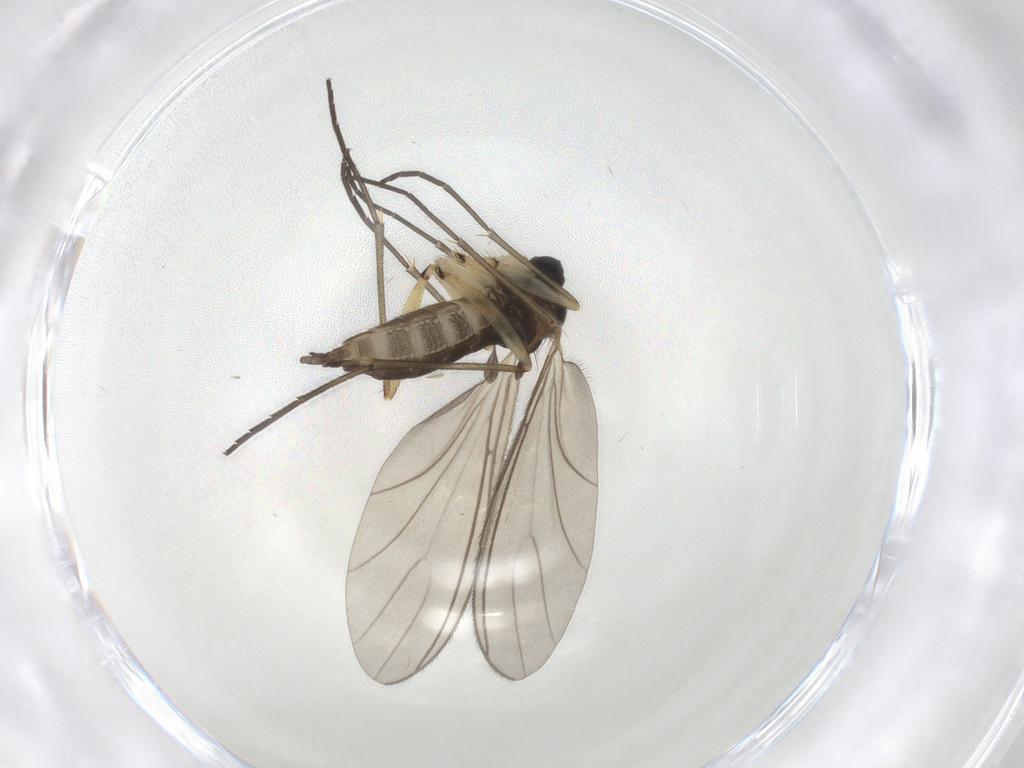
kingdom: Animalia
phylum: Arthropoda
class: Insecta
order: Diptera
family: Sciaridae
